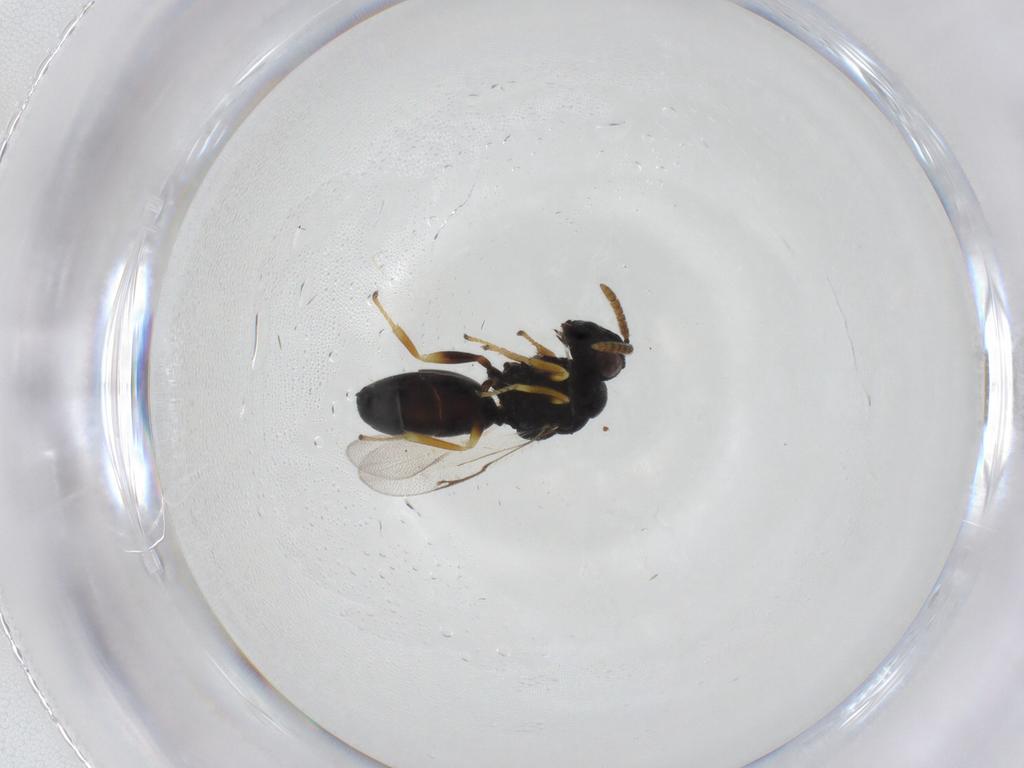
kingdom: Animalia
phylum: Arthropoda
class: Insecta
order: Hymenoptera
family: Eurytomidae
